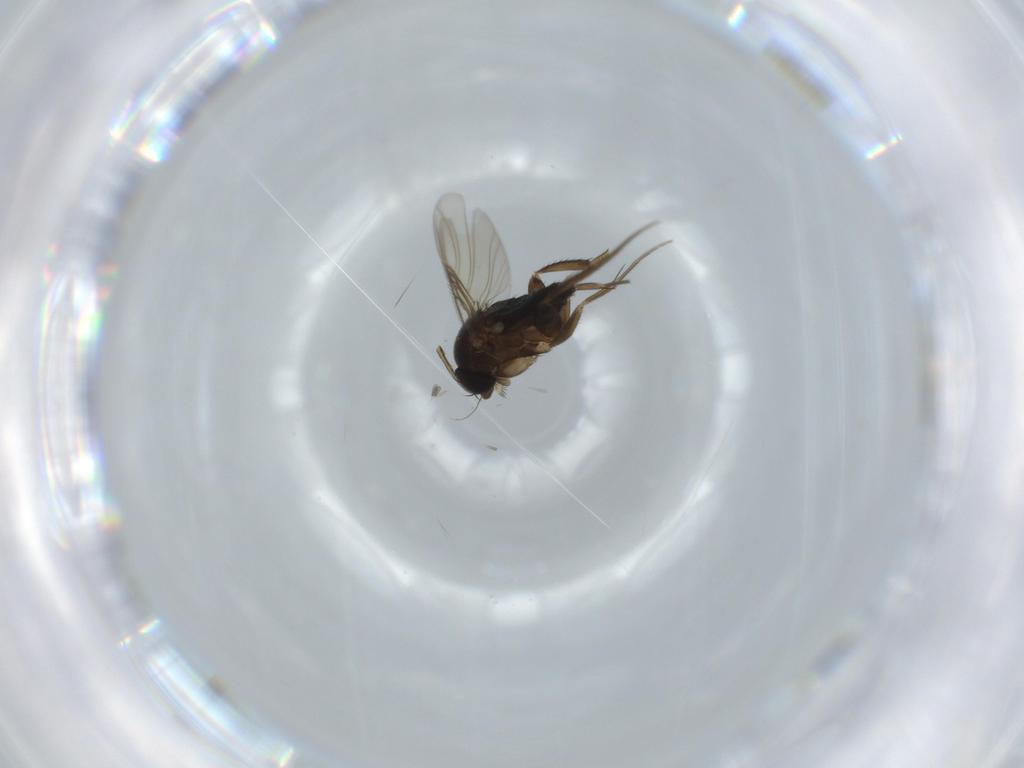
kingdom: Animalia
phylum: Arthropoda
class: Insecta
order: Diptera
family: Phoridae
